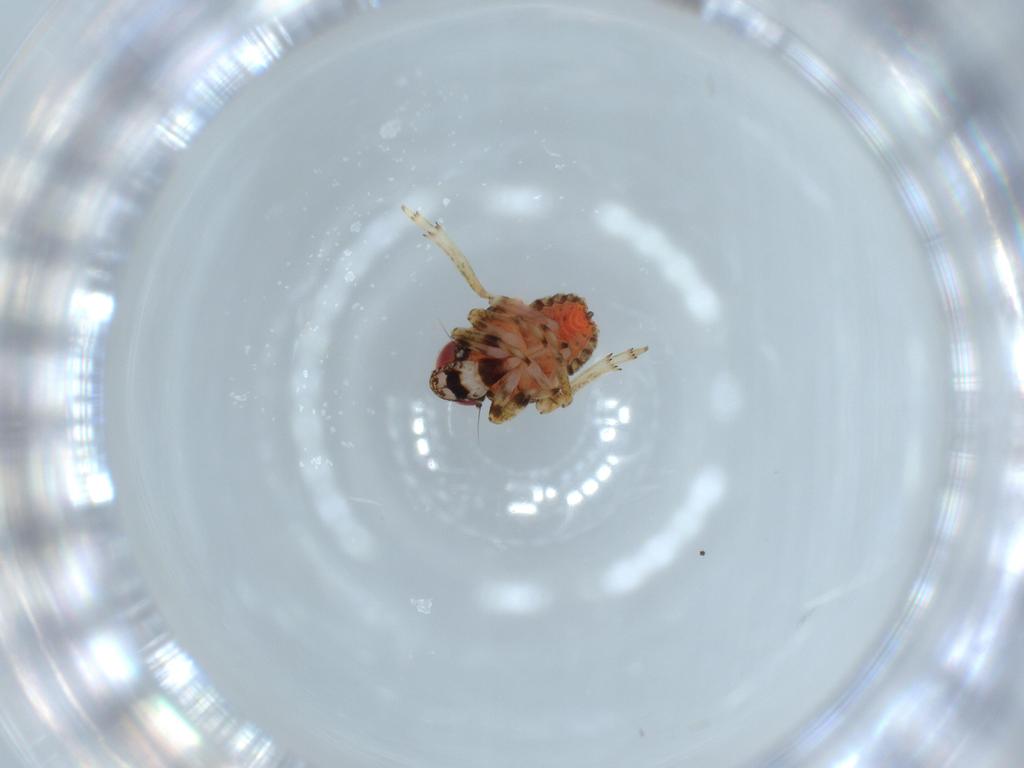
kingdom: Animalia
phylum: Arthropoda
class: Insecta
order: Hemiptera
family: Issidae
